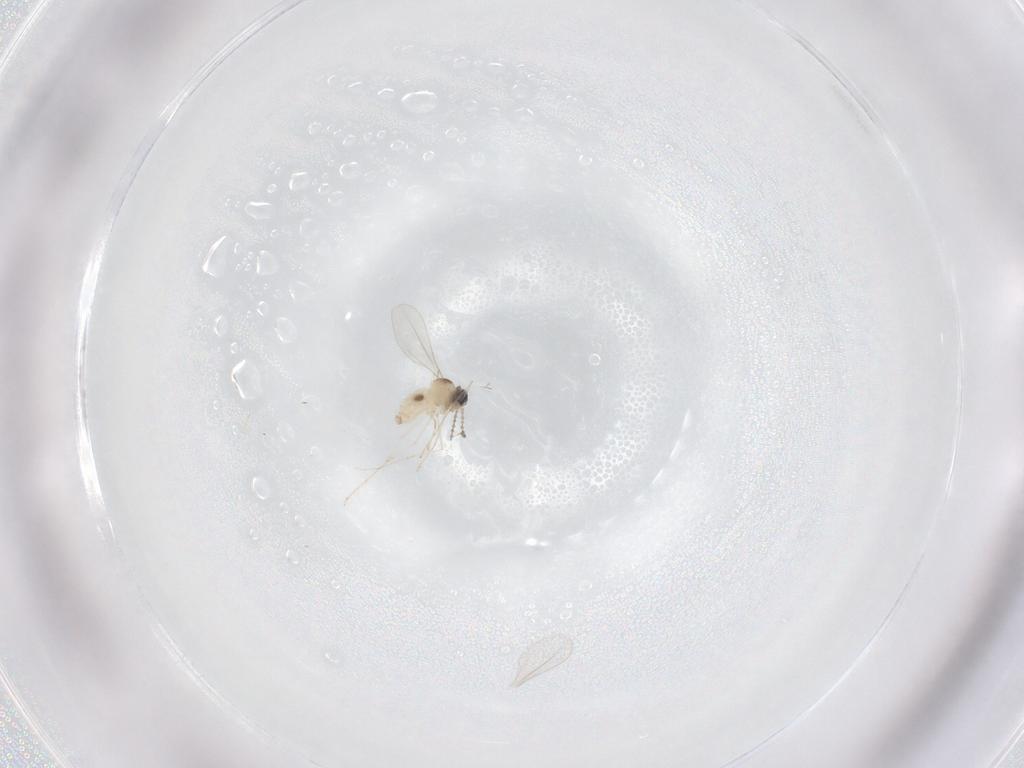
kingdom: Animalia
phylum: Arthropoda
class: Insecta
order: Diptera
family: Cecidomyiidae
